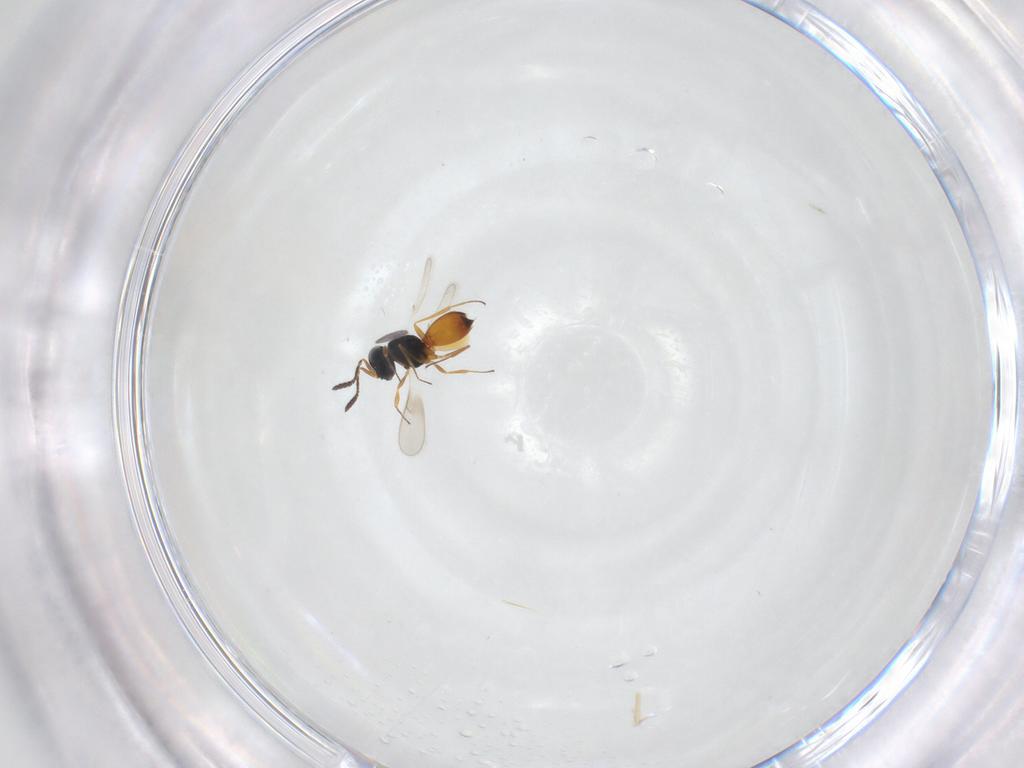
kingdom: Animalia
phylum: Arthropoda
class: Insecta
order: Hymenoptera
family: Scelionidae
